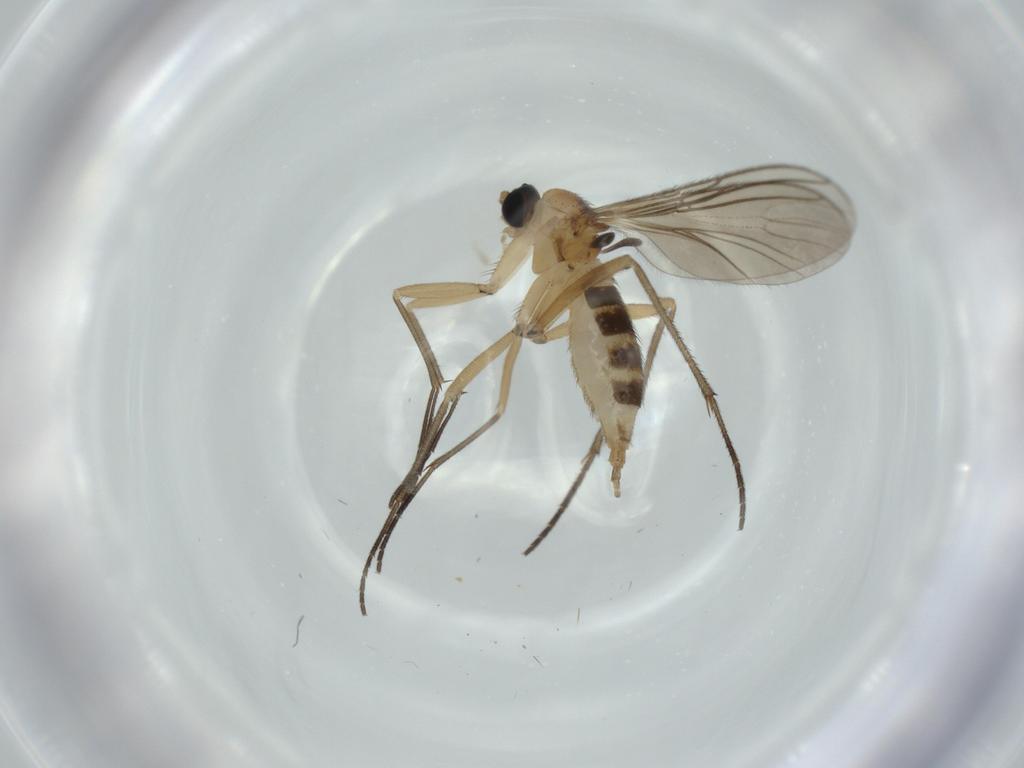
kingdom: Animalia
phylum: Arthropoda
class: Insecta
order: Diptera
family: Sciaridae
